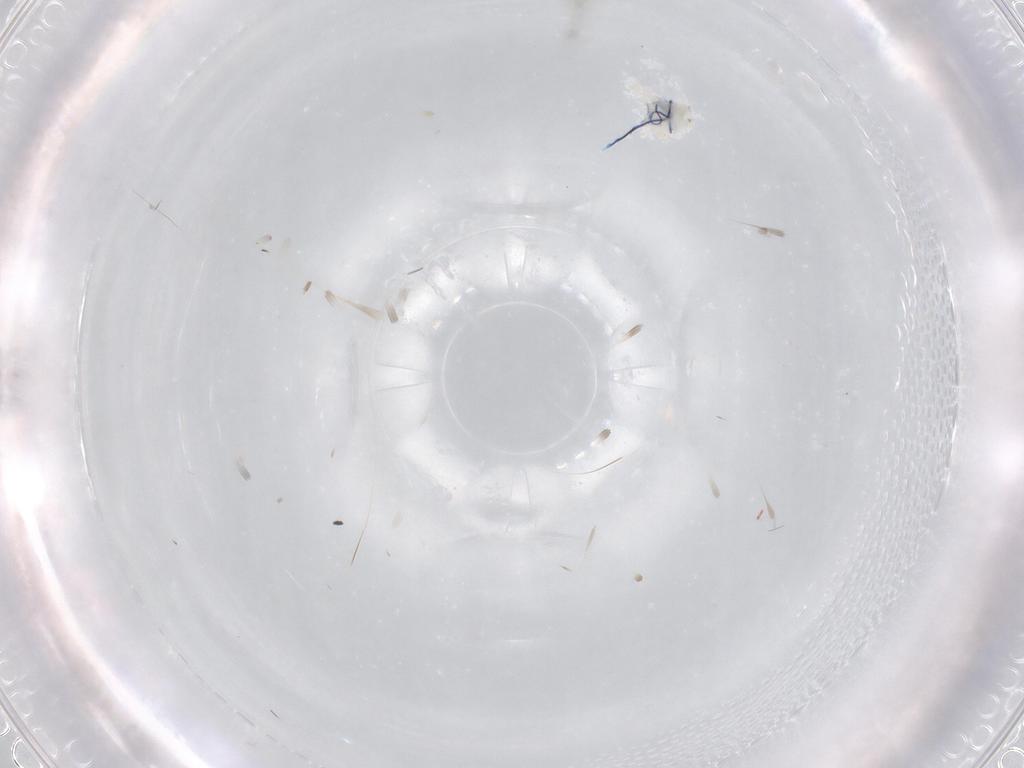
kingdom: Animalia
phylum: Arthropoda
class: Insecta
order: Diptera
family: Ceratopogonidae
